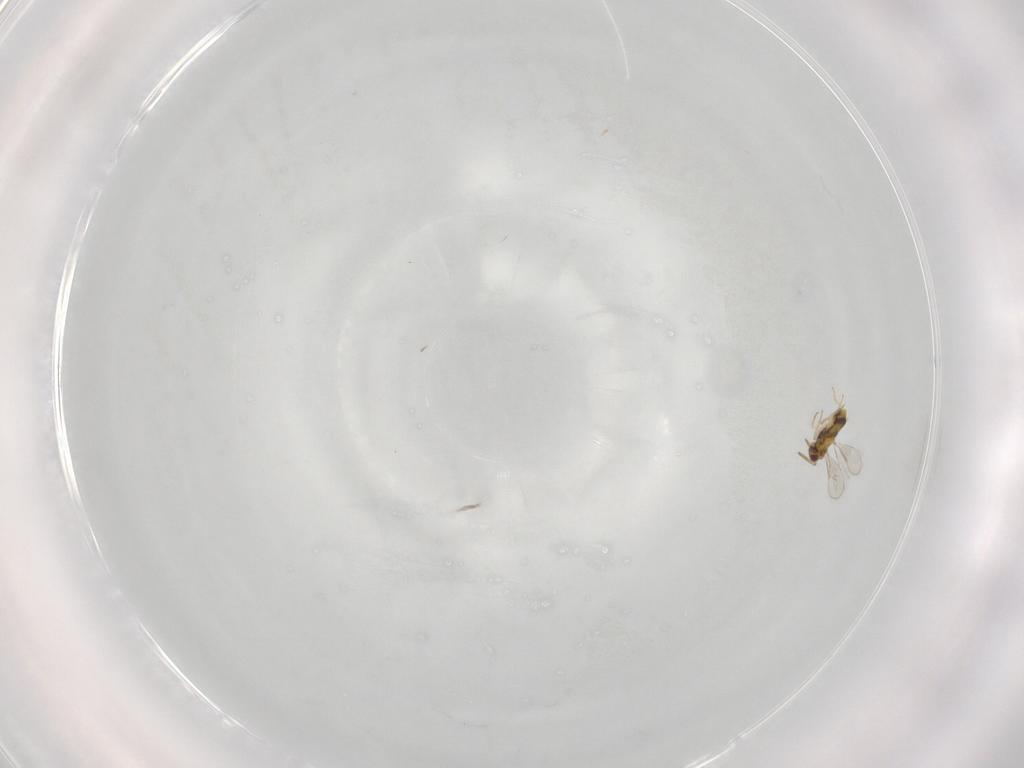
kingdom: Animalia
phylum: Arthropoda
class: Insecta
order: Hymenoptera
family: Aphelinidae
